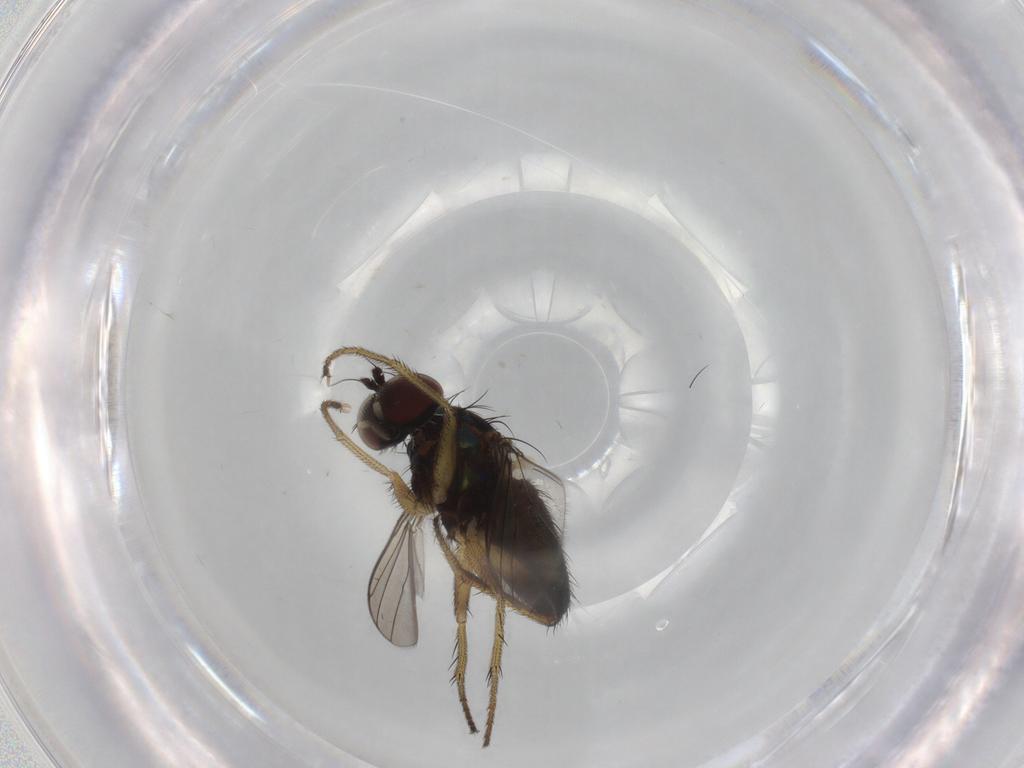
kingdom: Animalia
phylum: Arthropoda
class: Insecta
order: Diptera
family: Dolichopodidae
